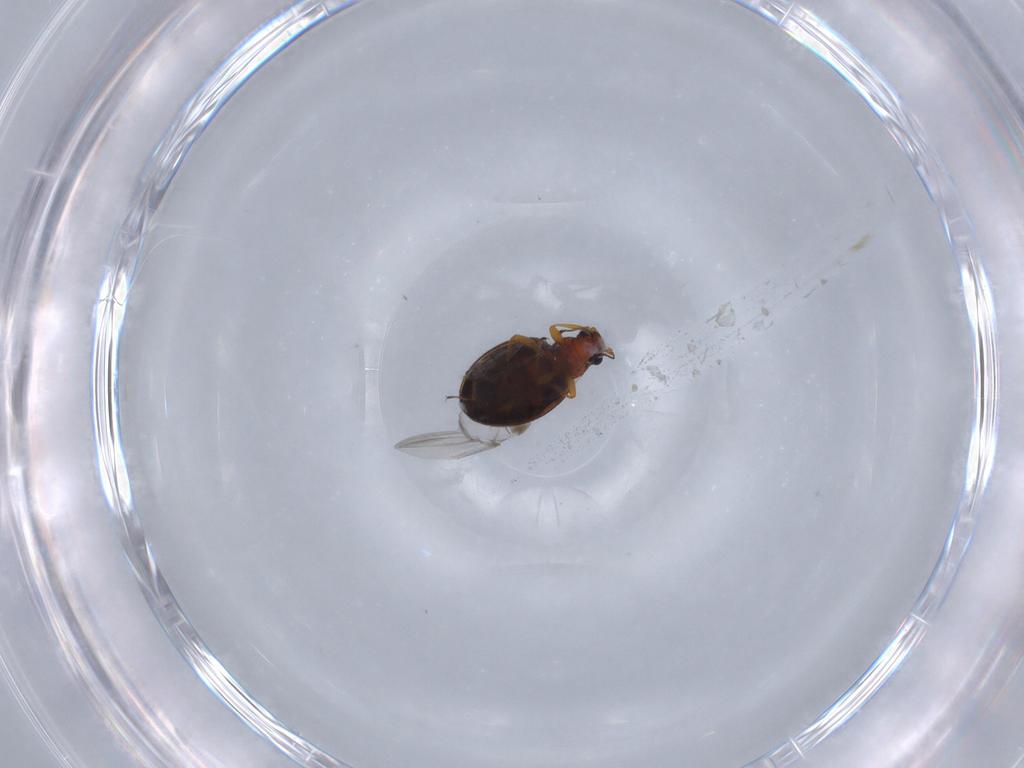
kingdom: Animalia
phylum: Arthropoda
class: Insecta
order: Coleoptera
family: Latridiidae
